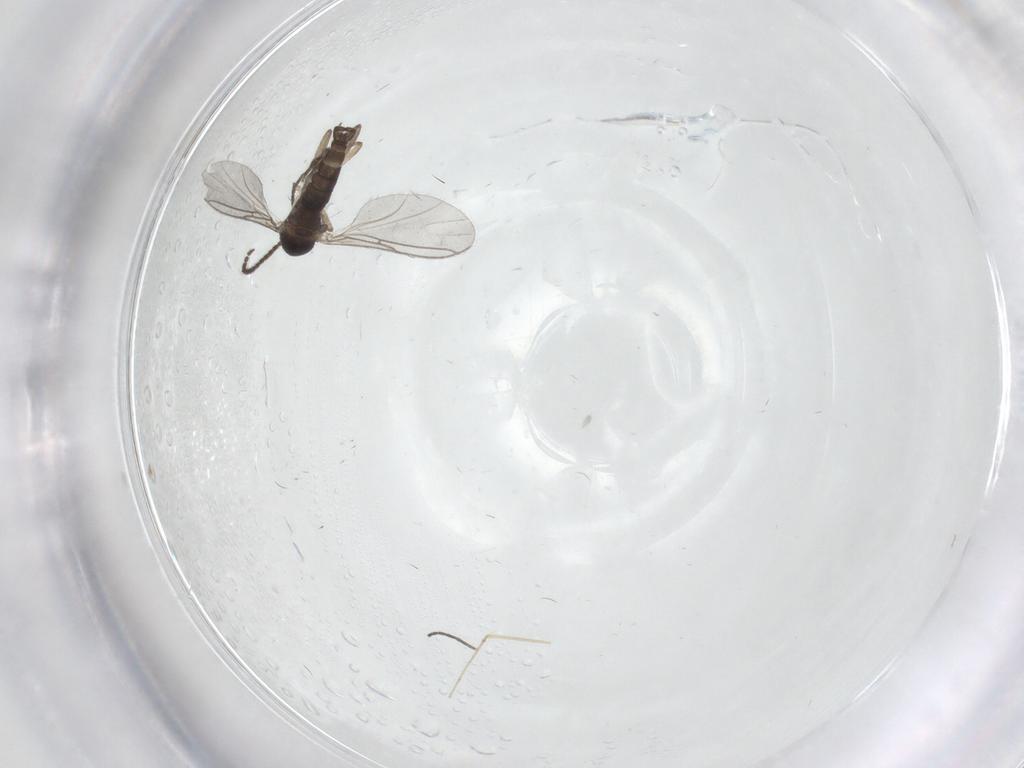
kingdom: Animalia
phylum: Arthropoda
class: Insecta
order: Diptera
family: Sciaridae
